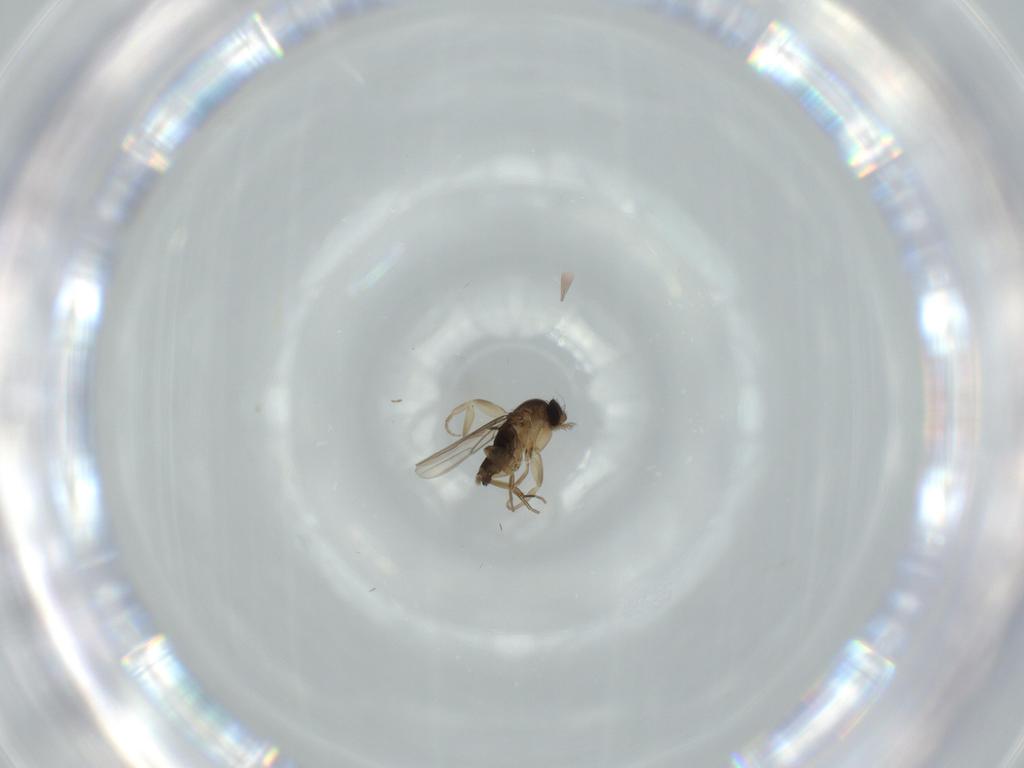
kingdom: Animalia
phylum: Arthropoda
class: Insecta
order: Diptera
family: Phoridae
